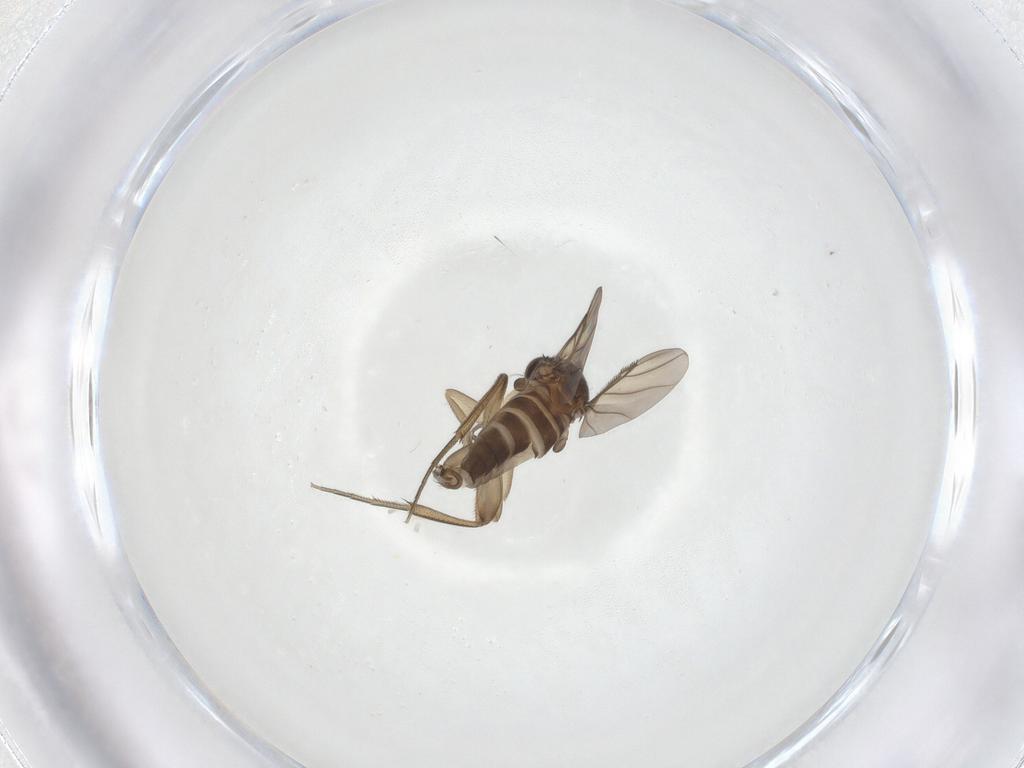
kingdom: Animalia
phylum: Arthropoda
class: Insecta
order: Diptera
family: Phoridae
